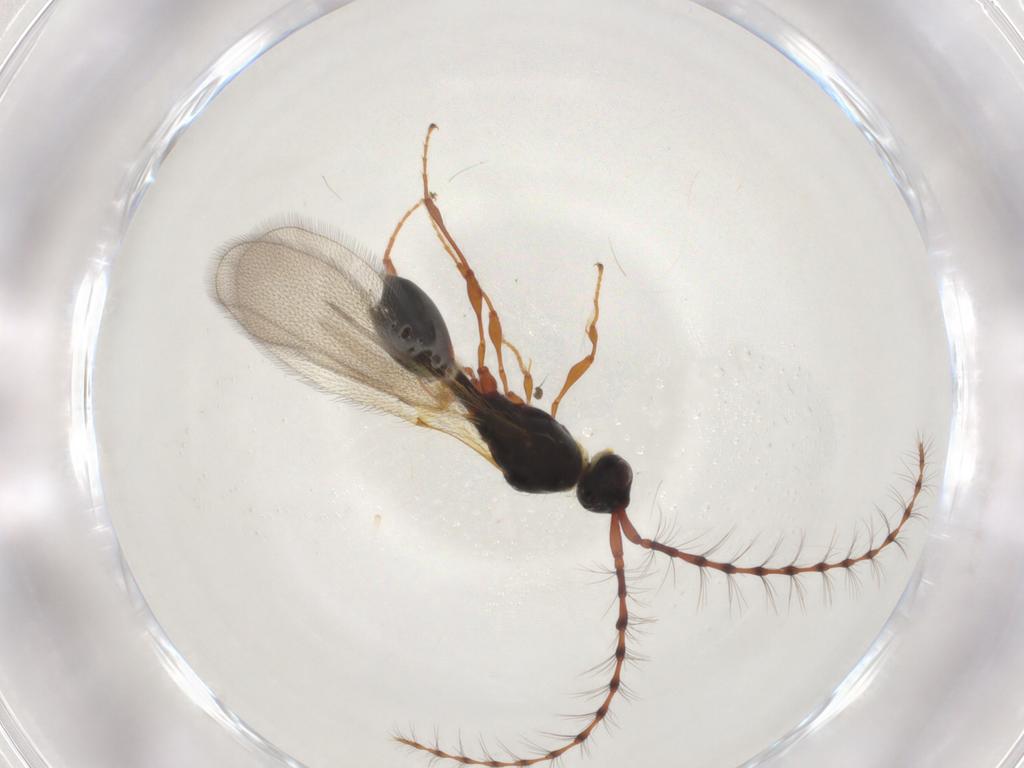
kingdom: Animalia
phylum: Arthropoda
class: Insecta
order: Hymenoptera
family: Diapriidae
